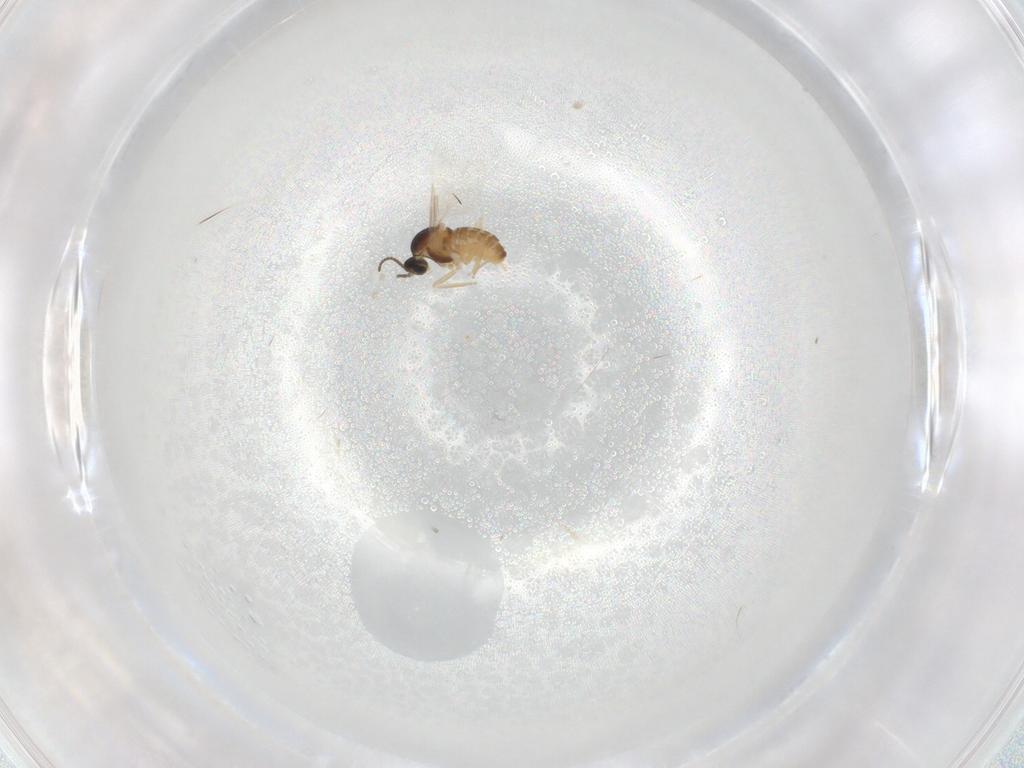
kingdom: Animalia
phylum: Arthropoda
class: Insecta
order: Diptera
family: Cecidomyiidae
